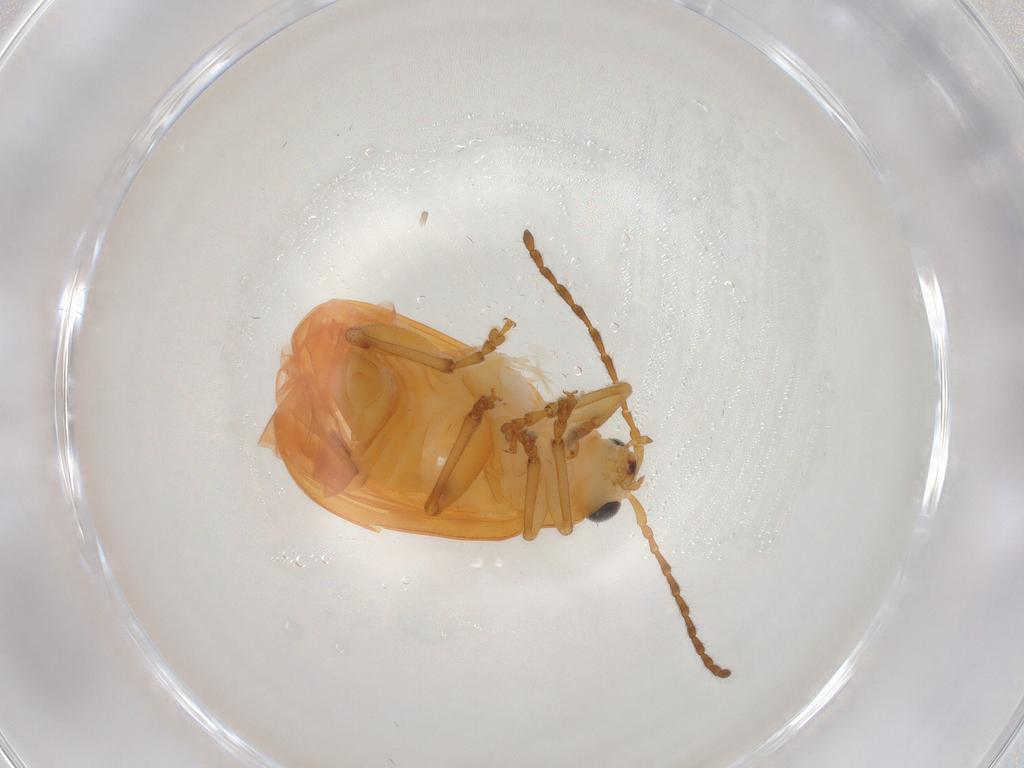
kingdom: Animalia
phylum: Arthropoda
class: Insecta
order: Coleoptera
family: Chrysomelidae
